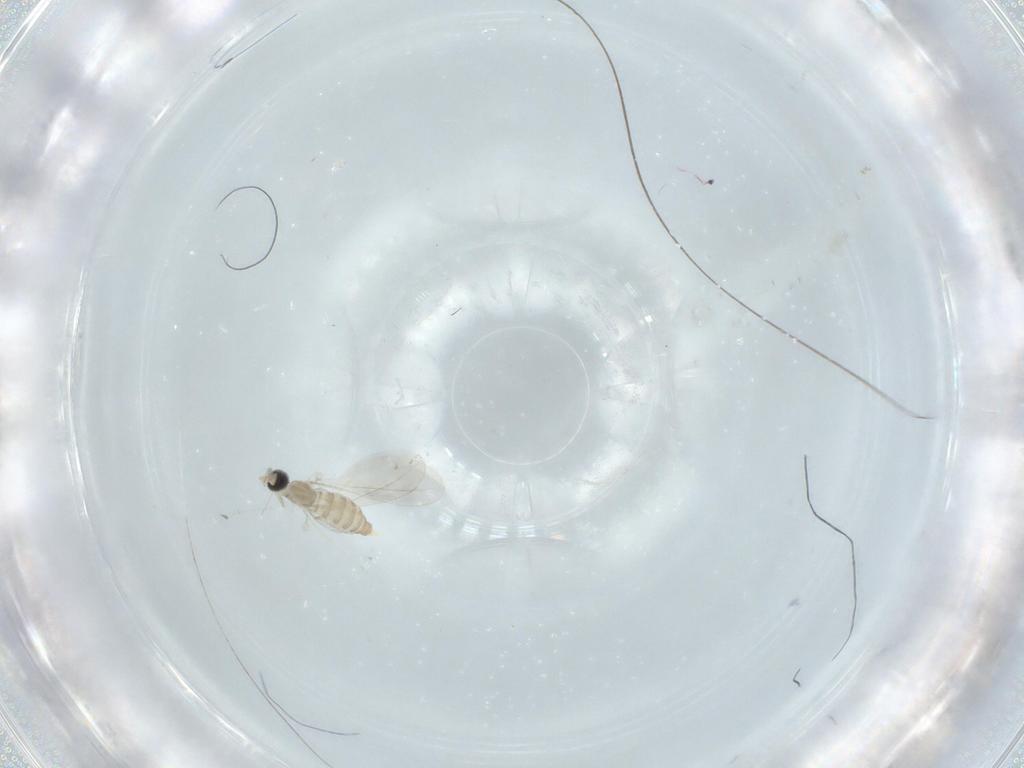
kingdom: Animalia
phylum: Arthropoda
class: Insecta
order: Diptera
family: Cecidomyiidae
